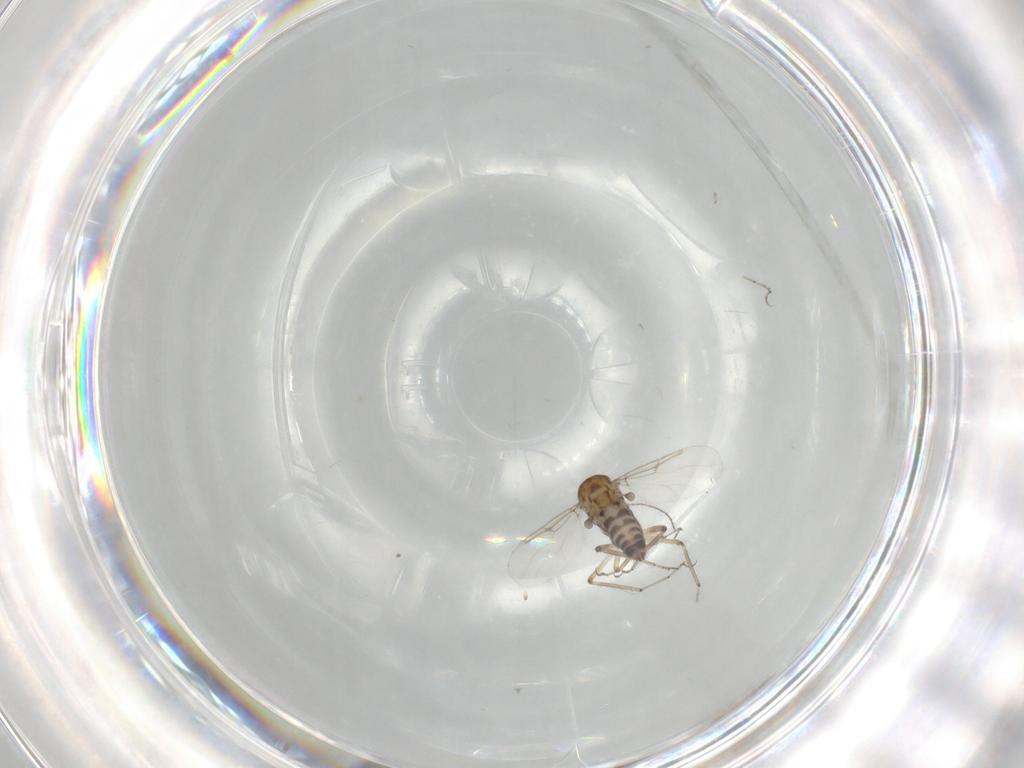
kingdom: Animalia
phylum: Arthropoda
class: Insecta
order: Diptera
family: Ceratopogonidae
